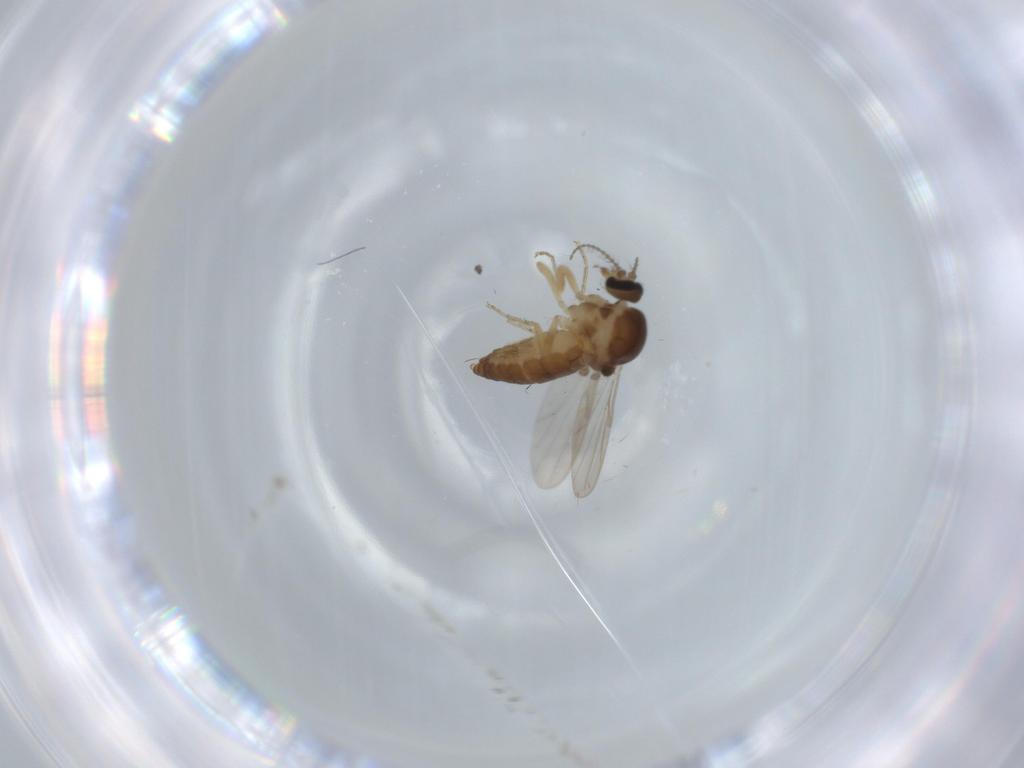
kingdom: Animalia
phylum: Arthropoda
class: Insecta
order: Diptera
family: Ceratopogonidae
